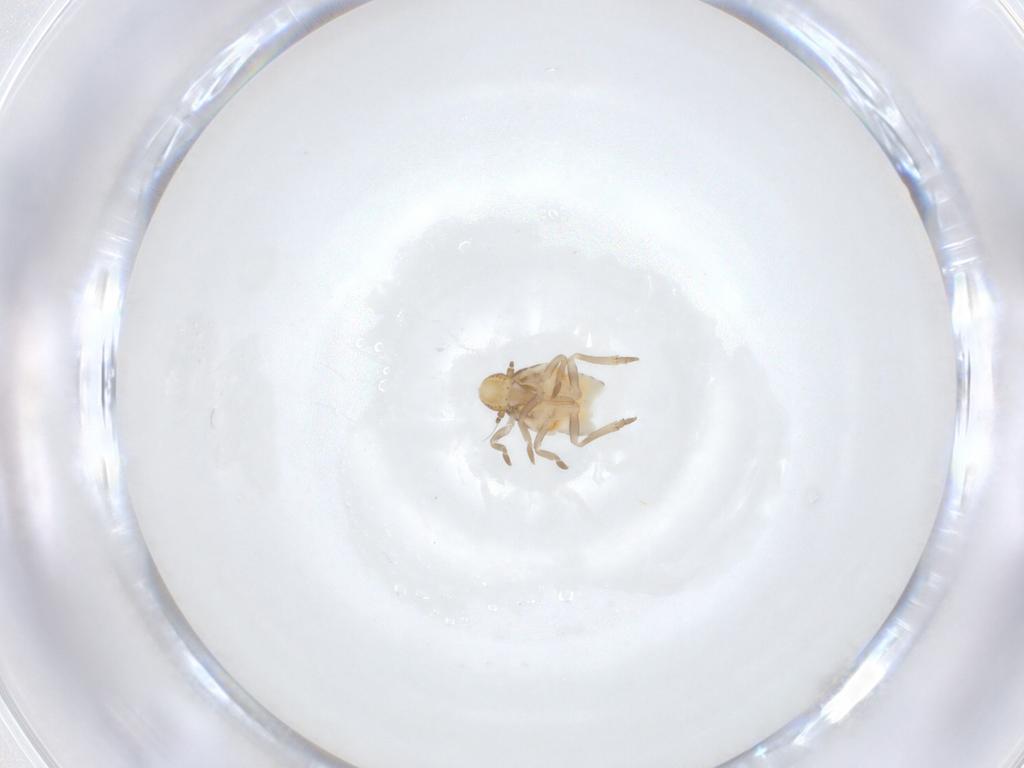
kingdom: Animalia
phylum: Arthropoda
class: Insecta
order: Hemiptera
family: Flatidae
